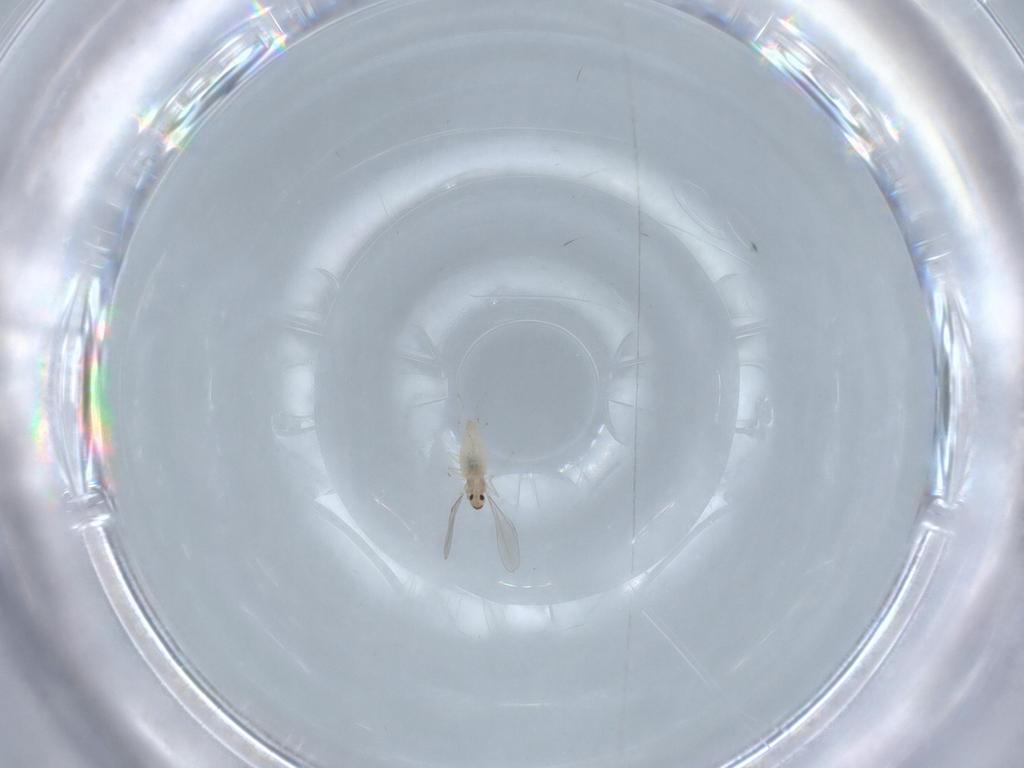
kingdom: Animalia
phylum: Arthropoda
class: Insecta
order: Diptera
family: Cecidomyiidae
